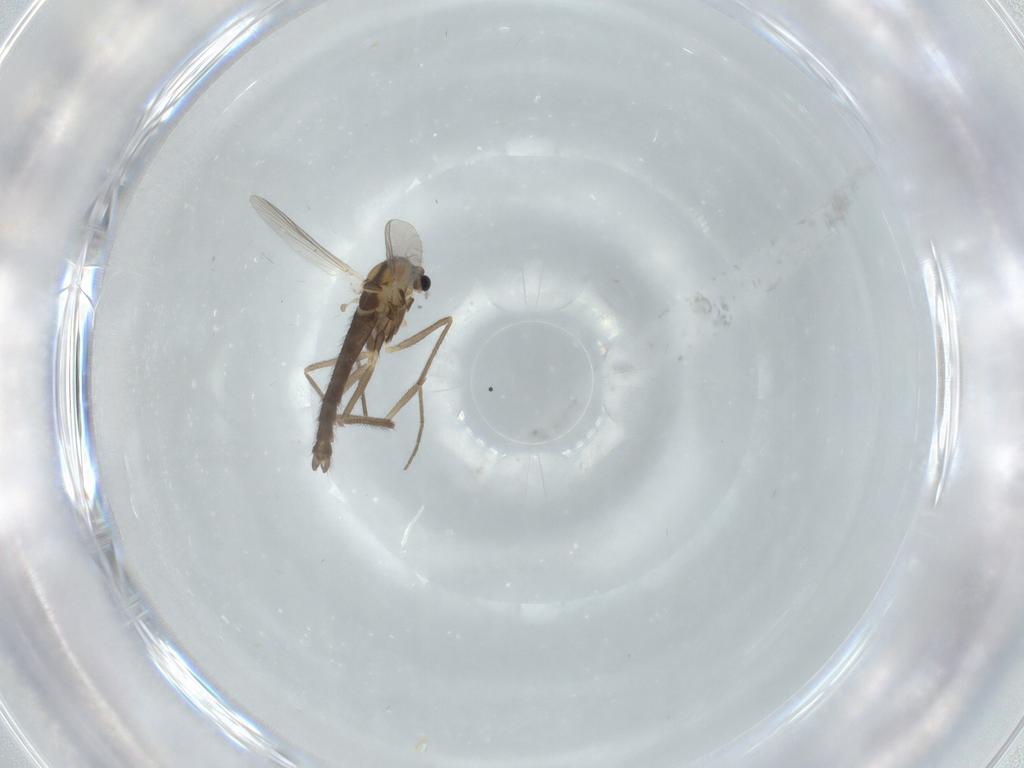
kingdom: Animalia
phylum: Arthropoda
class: Insecta
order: Diptera
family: Chironomidae
